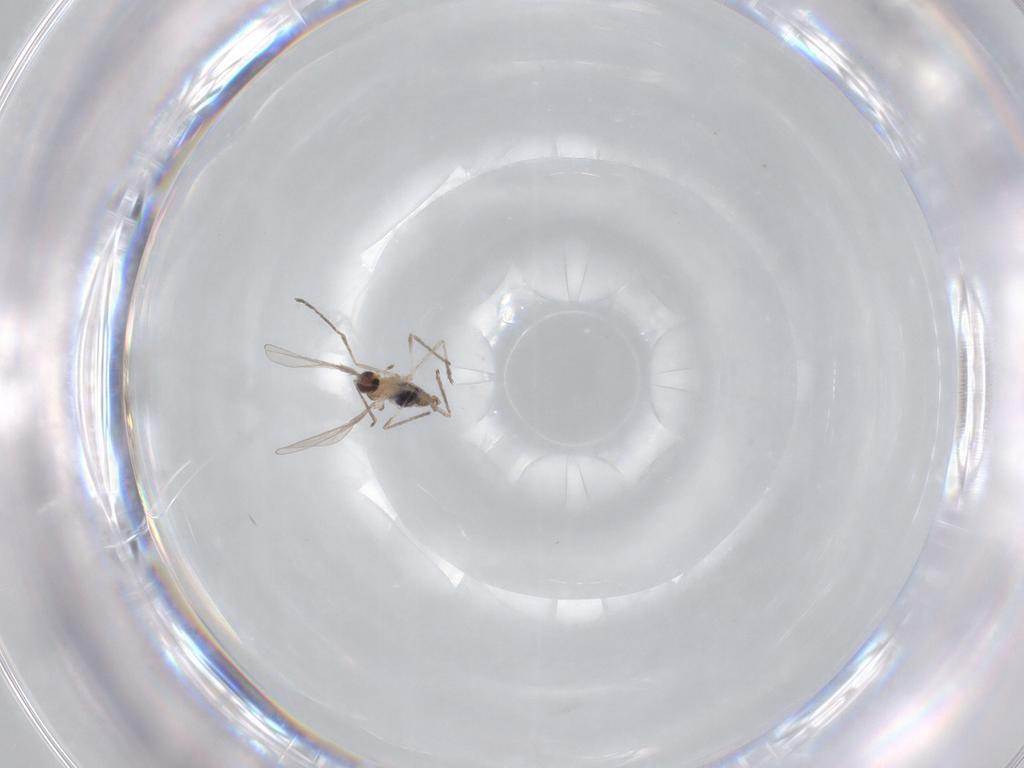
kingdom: Animalia
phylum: Arthropoda
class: Insecta
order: Diptera
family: Cecidomyiidae
